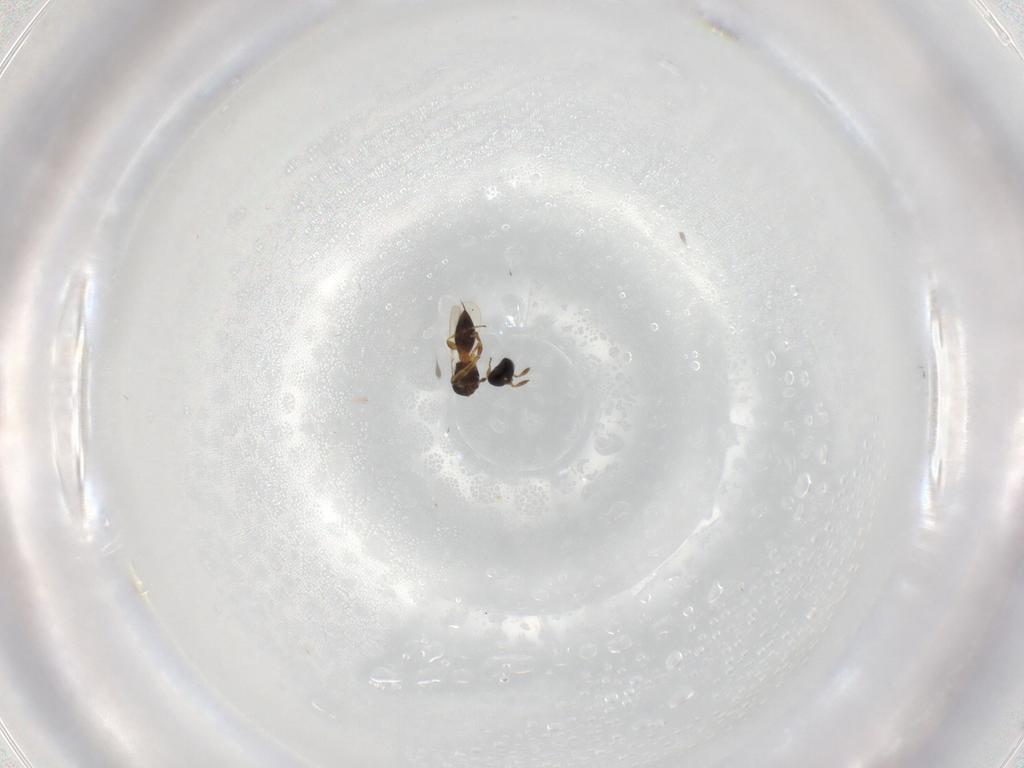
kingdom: Animalia
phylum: Arthropoda
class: Insecta
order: Hymenoptera
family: Platygastridae
